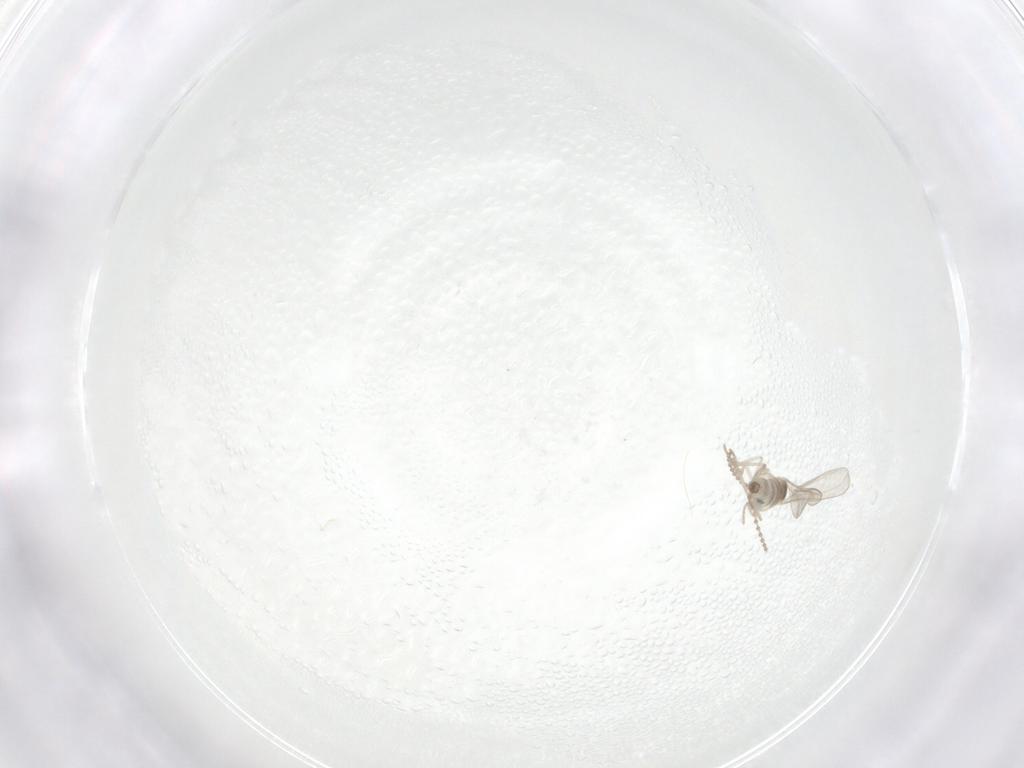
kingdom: Animalia
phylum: Arthropoda
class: Insecta
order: Diptera
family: Cecidomyiidae
